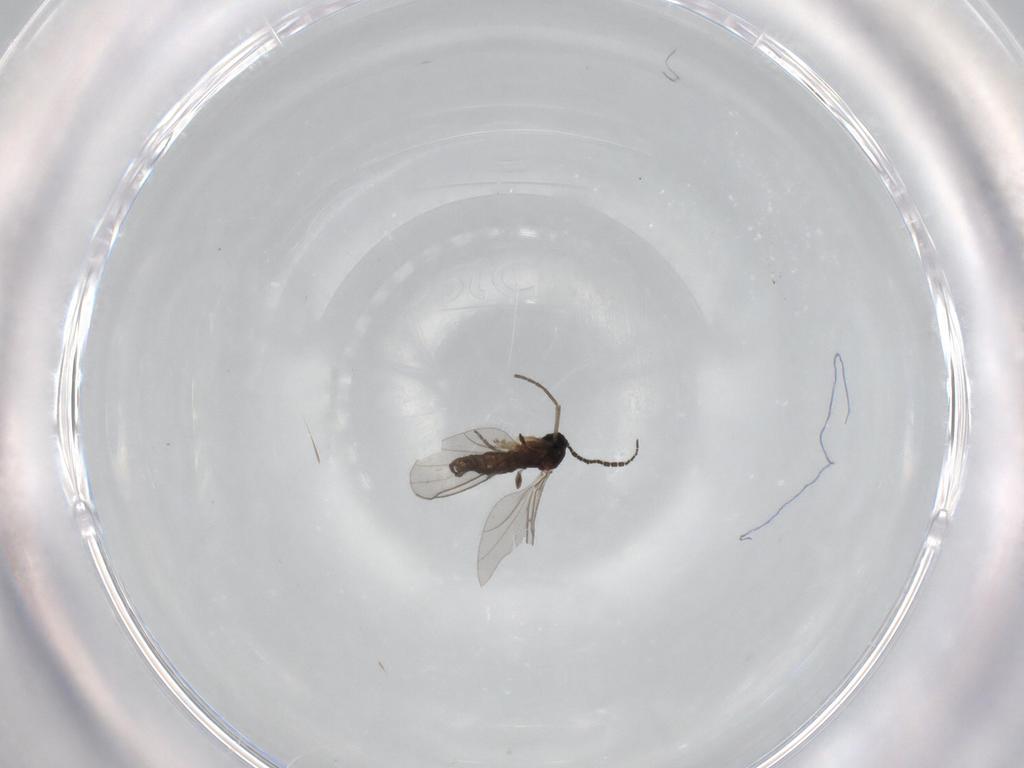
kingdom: Animalia
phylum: Arthropoda
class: Insecta
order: Diptera
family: Sciaridae
